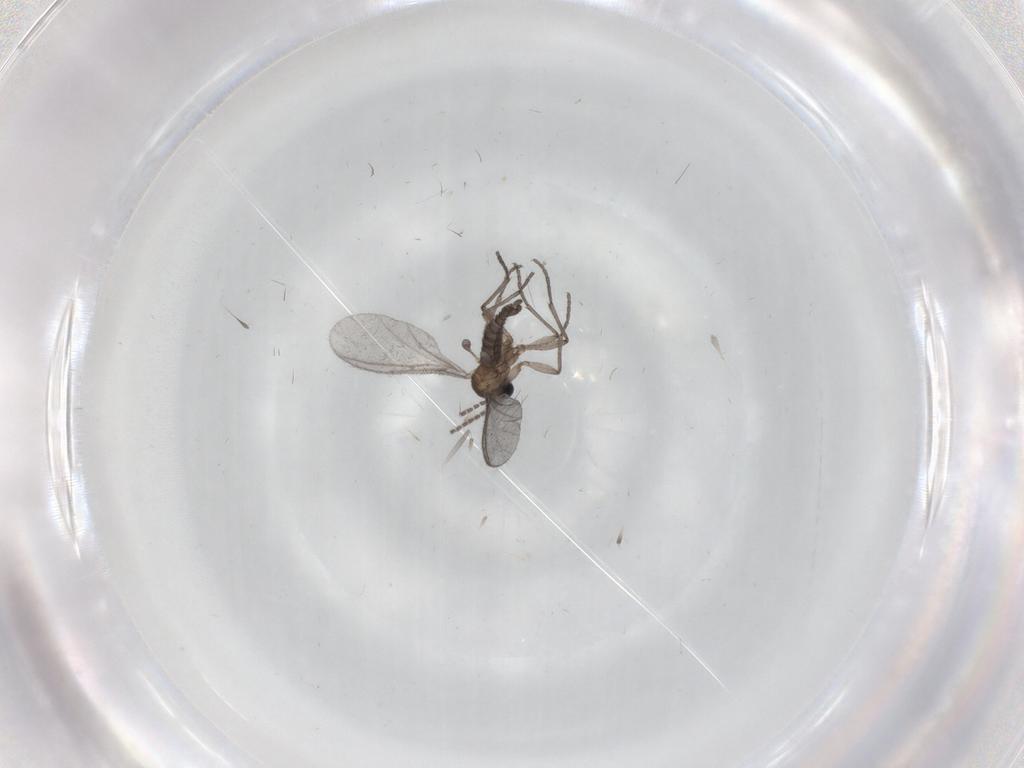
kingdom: Animalia
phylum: Arthropoda
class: Insecta
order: Diptera
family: Sciaridae
